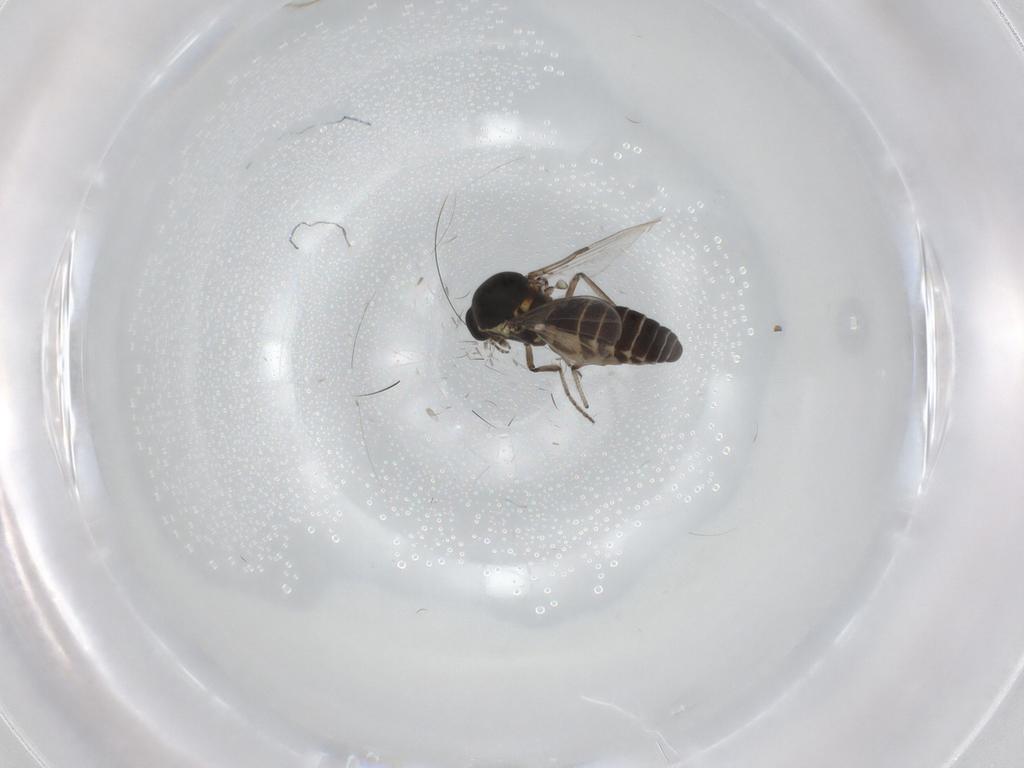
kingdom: Animalia
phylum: Arthropoda
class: Insecta
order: Diptera
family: Ceratopogonidae
